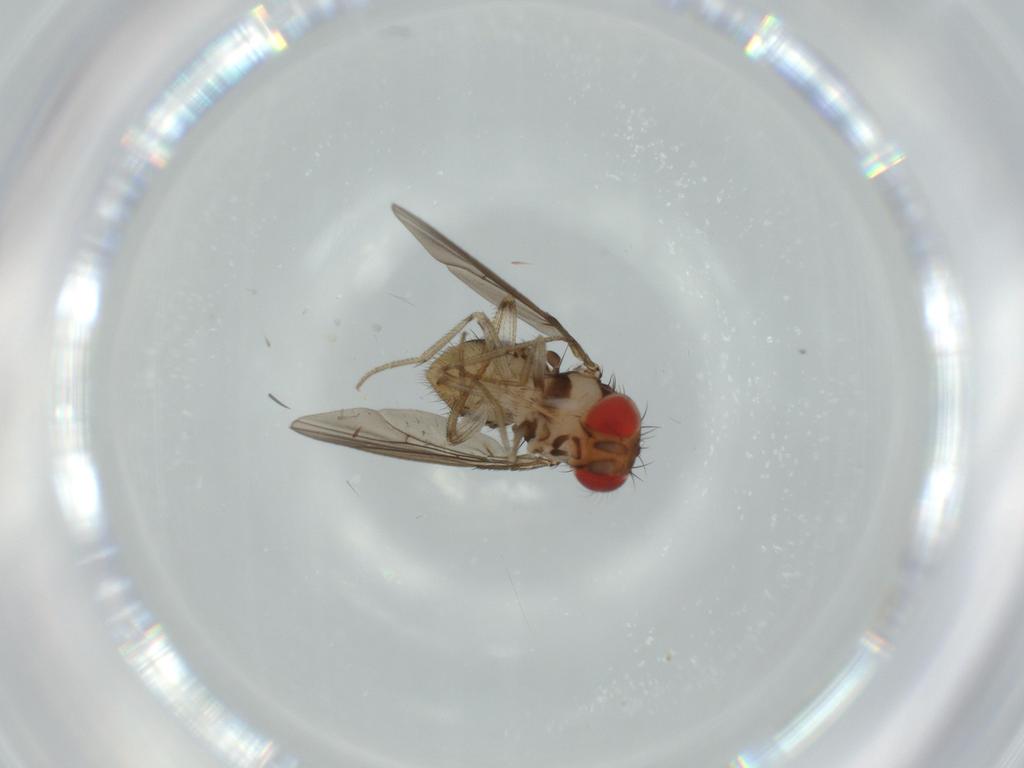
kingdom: Animalia
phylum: Arthropoda
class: Insecta
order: Diptera
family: Drosophilidae
